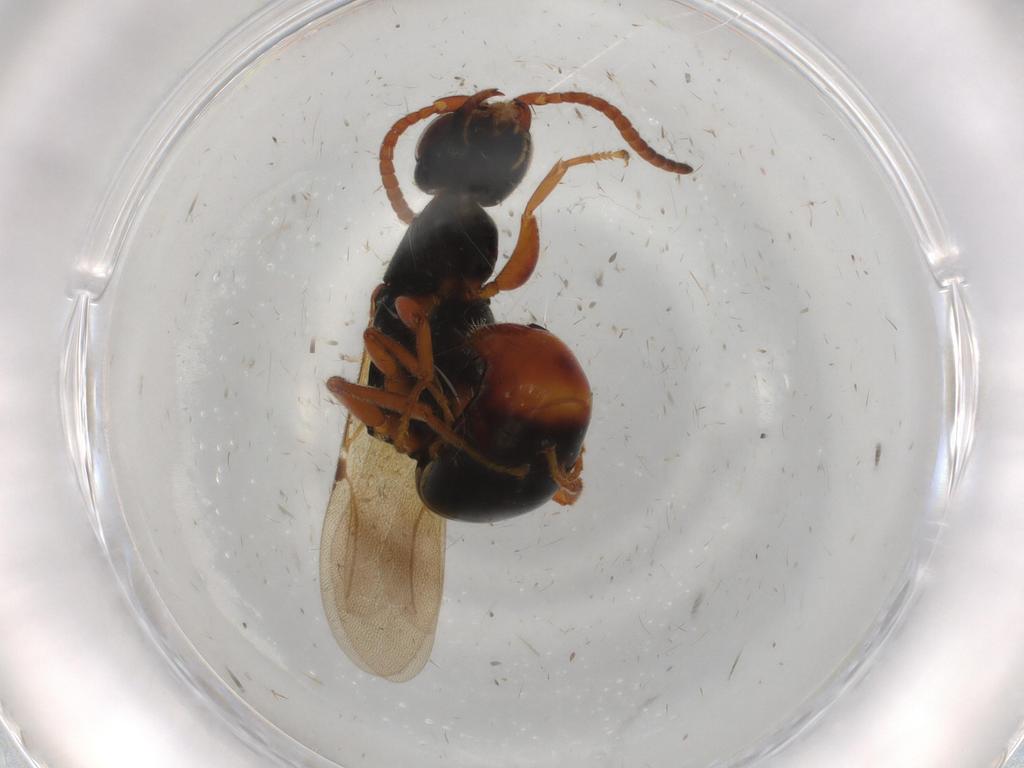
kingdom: Animalia
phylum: Arthropoda
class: Insecta
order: Hymenoptera
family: Bethylidae
